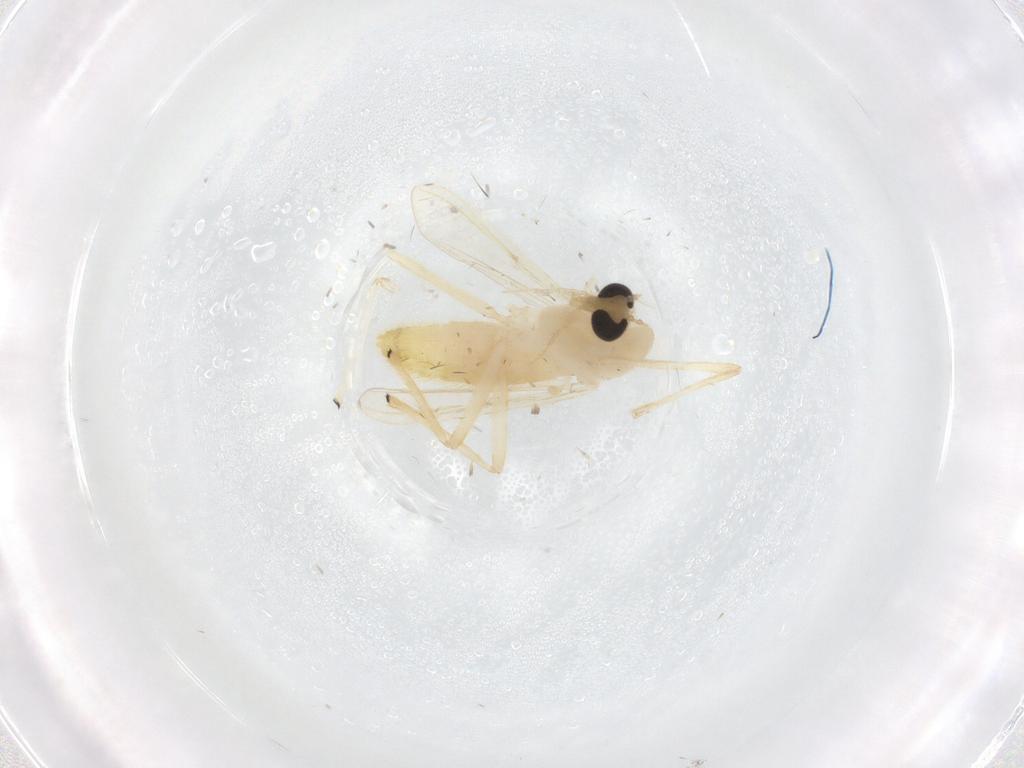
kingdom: Animalia
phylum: Arthropoda
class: Insecta
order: Diptera
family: Chironomidae
